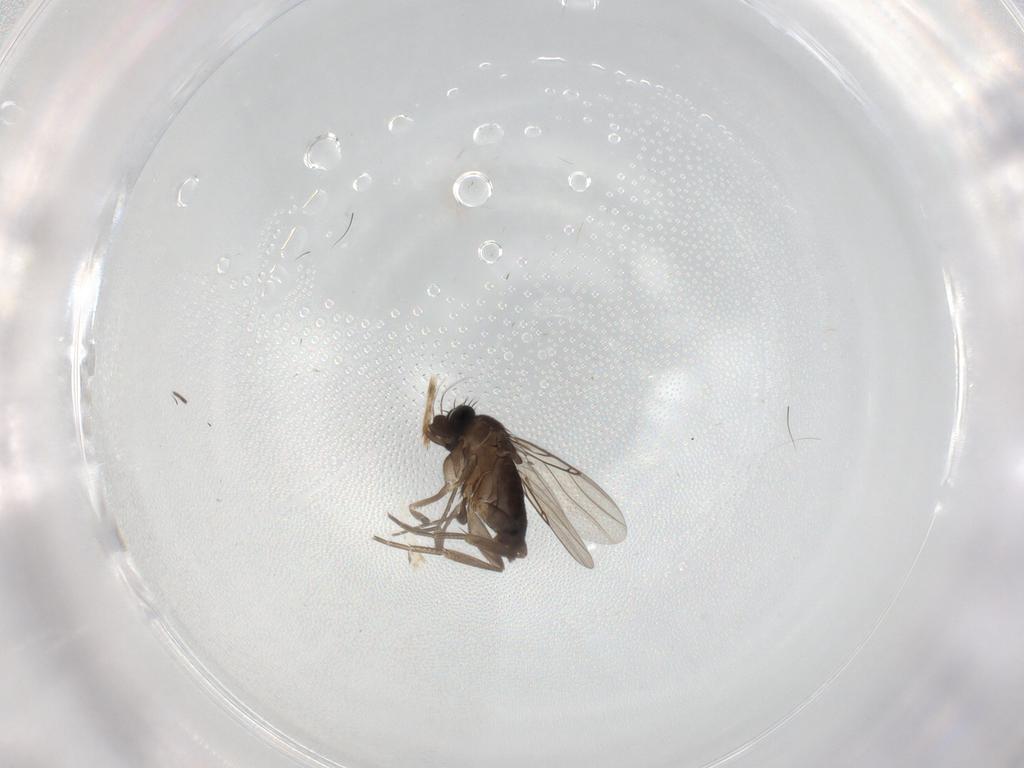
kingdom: Animalia
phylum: Arthropoda
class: Insecta
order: Diptera
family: Phoridae
